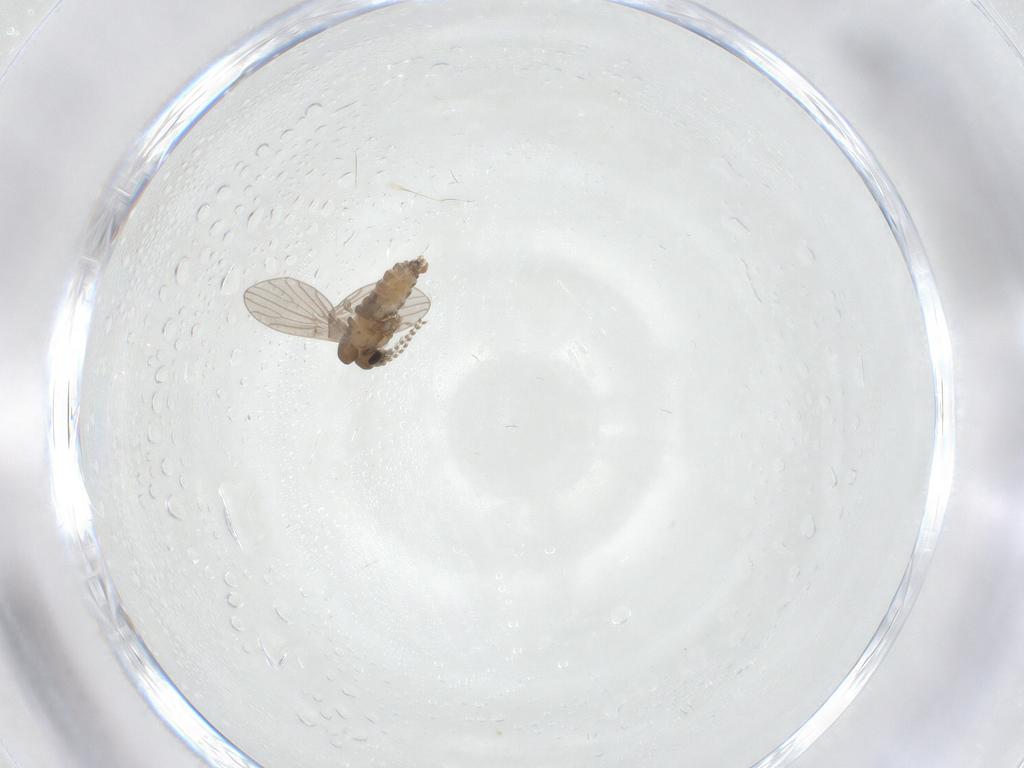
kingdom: Animalia
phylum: Arthropoda
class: Insecta
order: Diptera
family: Psychodidae
